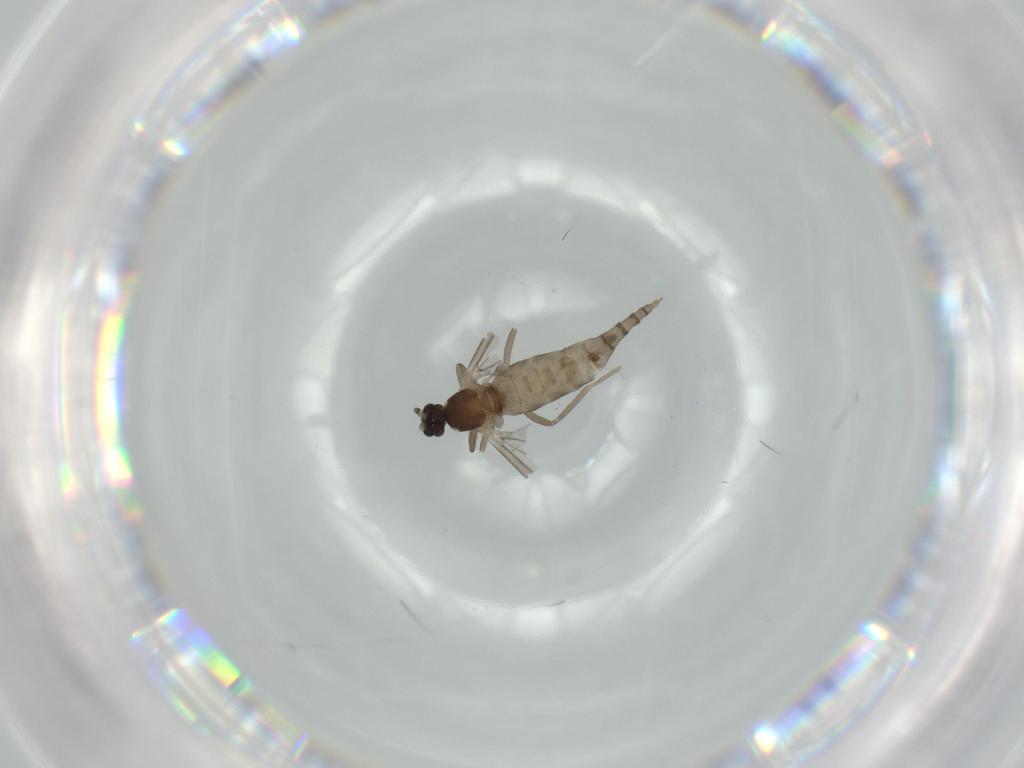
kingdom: Animalia
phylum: Arthropoda
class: Insecta
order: Diptera
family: Cecidomyiidae
